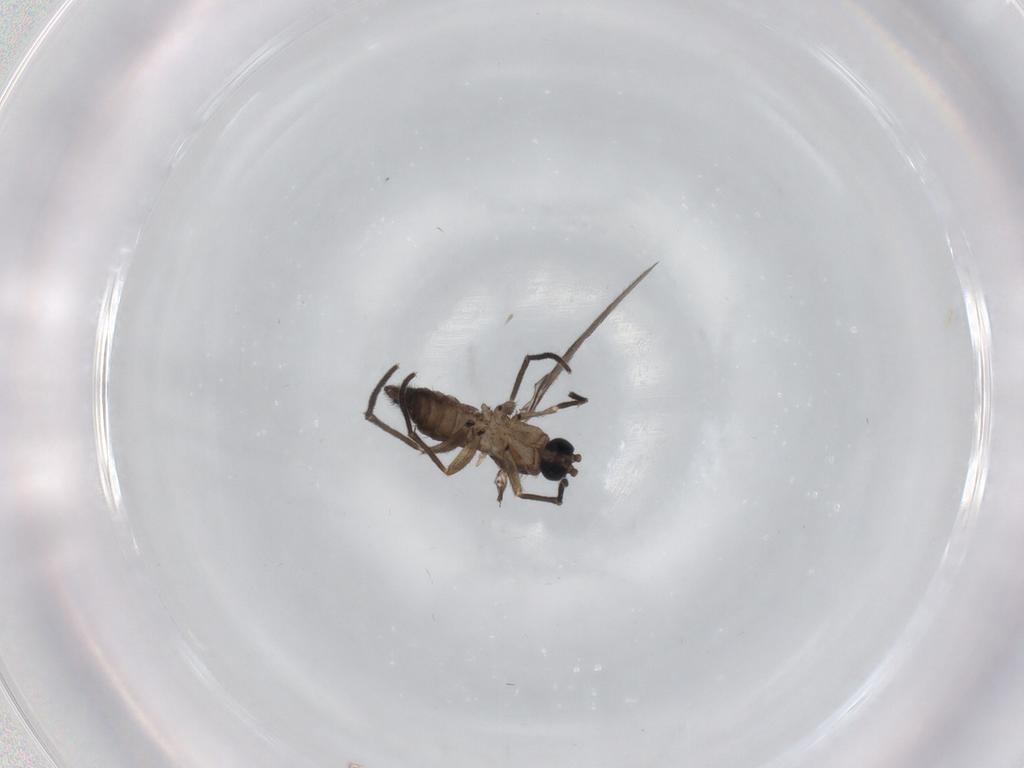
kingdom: Animalia
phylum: Arthropoda
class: Insecta
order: Diptera
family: Sciaridae
